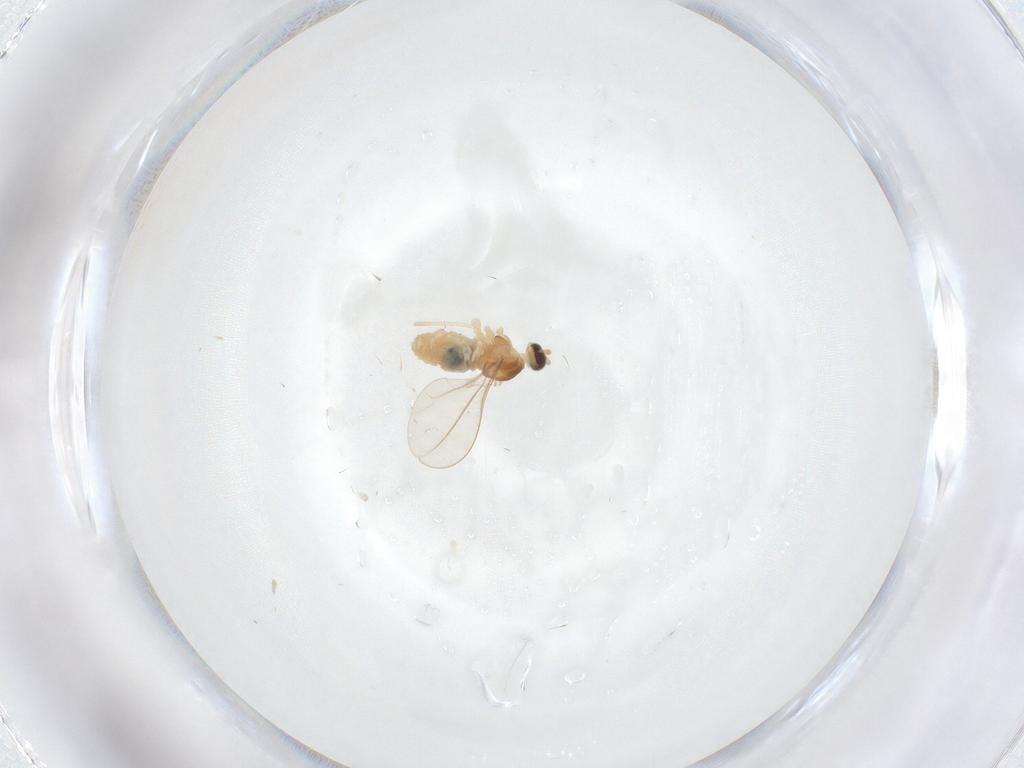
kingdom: Animalia
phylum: Arthropoda
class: Insecta
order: Diptera
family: Cecidomyiidae
